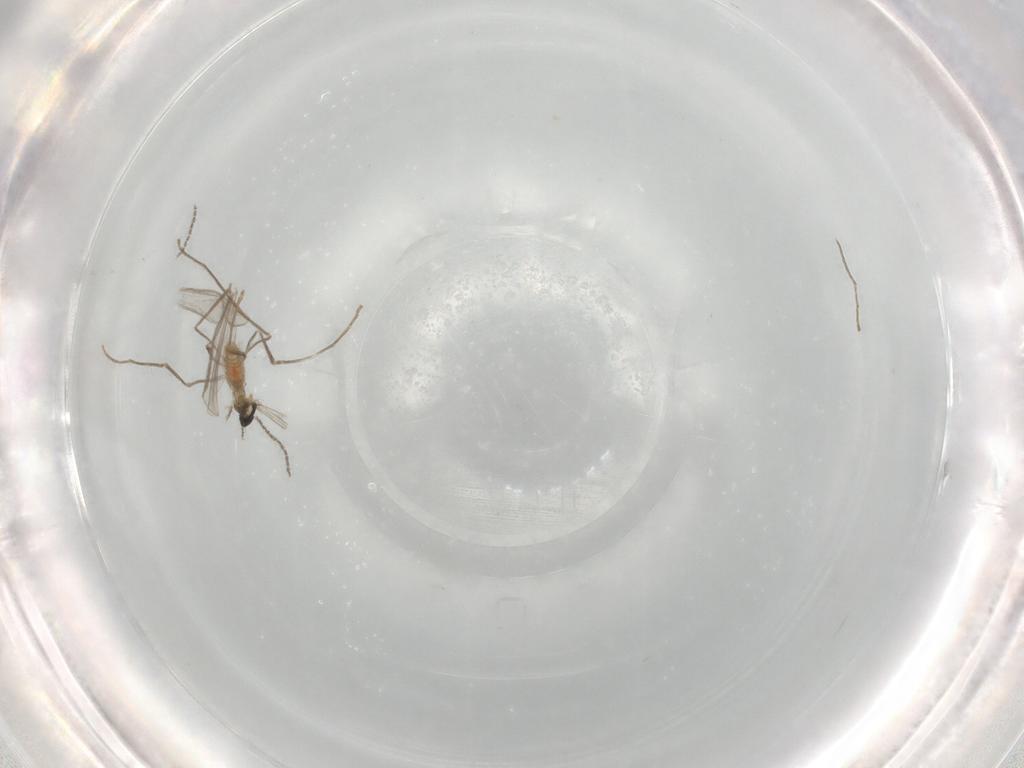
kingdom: Animalia
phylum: Arthropoda
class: Insecta
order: Diptera
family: Cecidomyiidae
